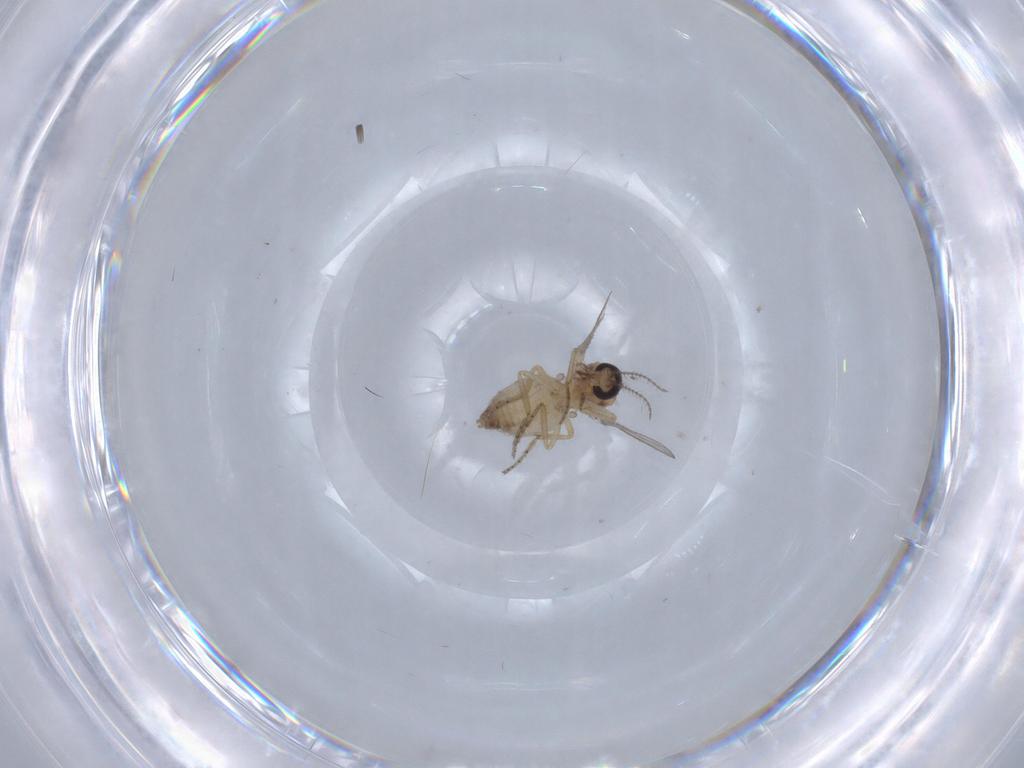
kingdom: Animalia
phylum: Arthropoda
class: Insecta
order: Diptera
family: Ceratopogonidae
